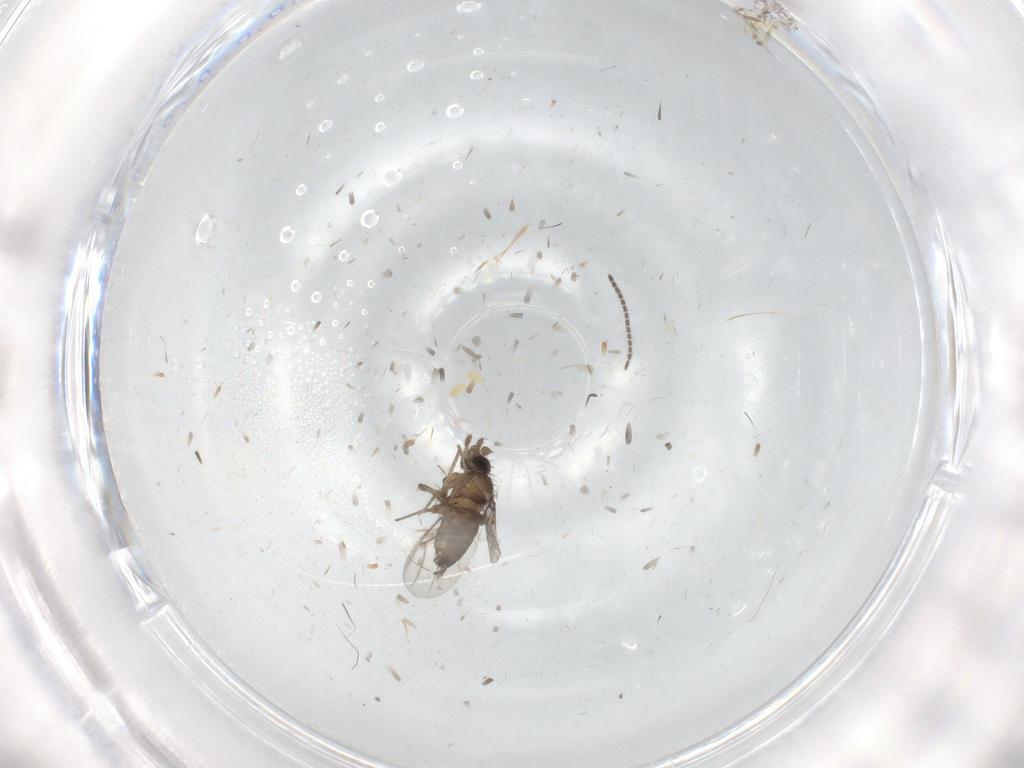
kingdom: Animalia
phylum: Arthropoda
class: Insecta
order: Diptera
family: Sciaridae
